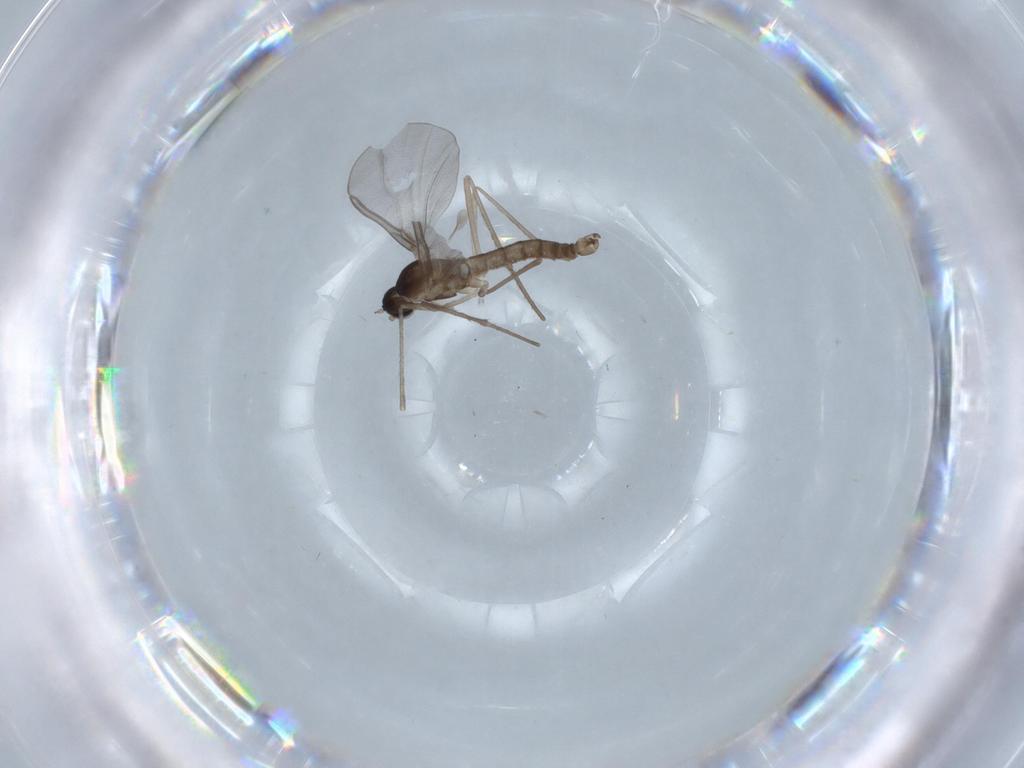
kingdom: Animalia
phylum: Arthropoda
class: Insecta
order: Diptera
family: Cecidomyiidae
